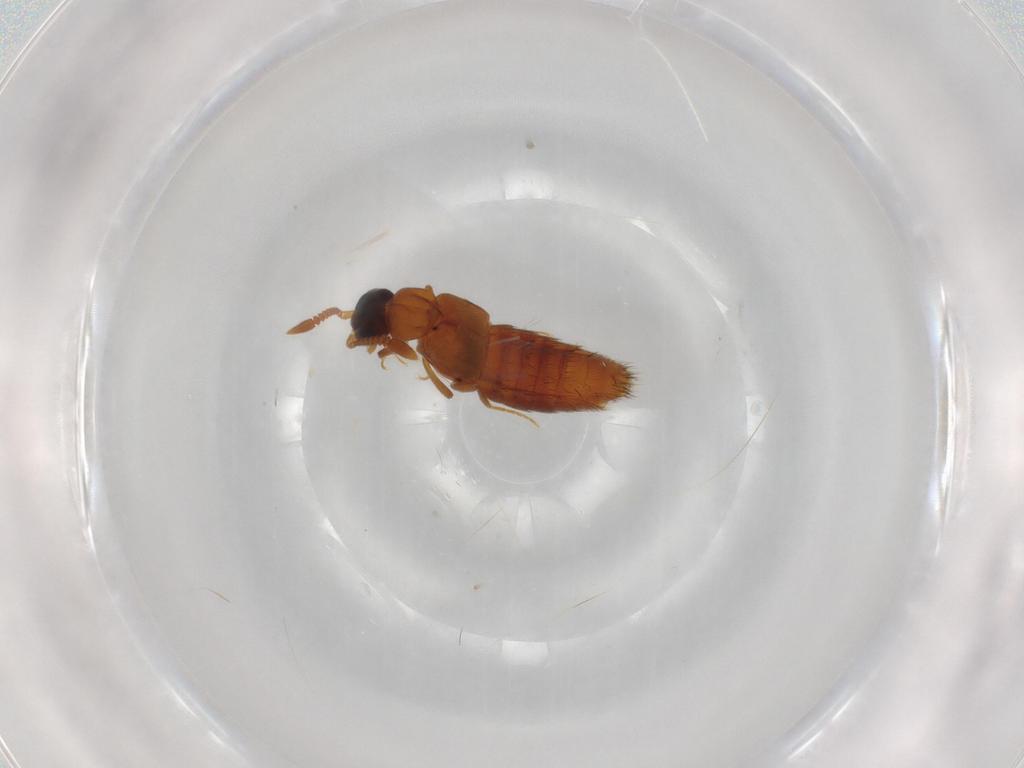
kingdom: Animalia
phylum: Arthropoda
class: Insecta
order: Coleoptera
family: Staphylinidae
